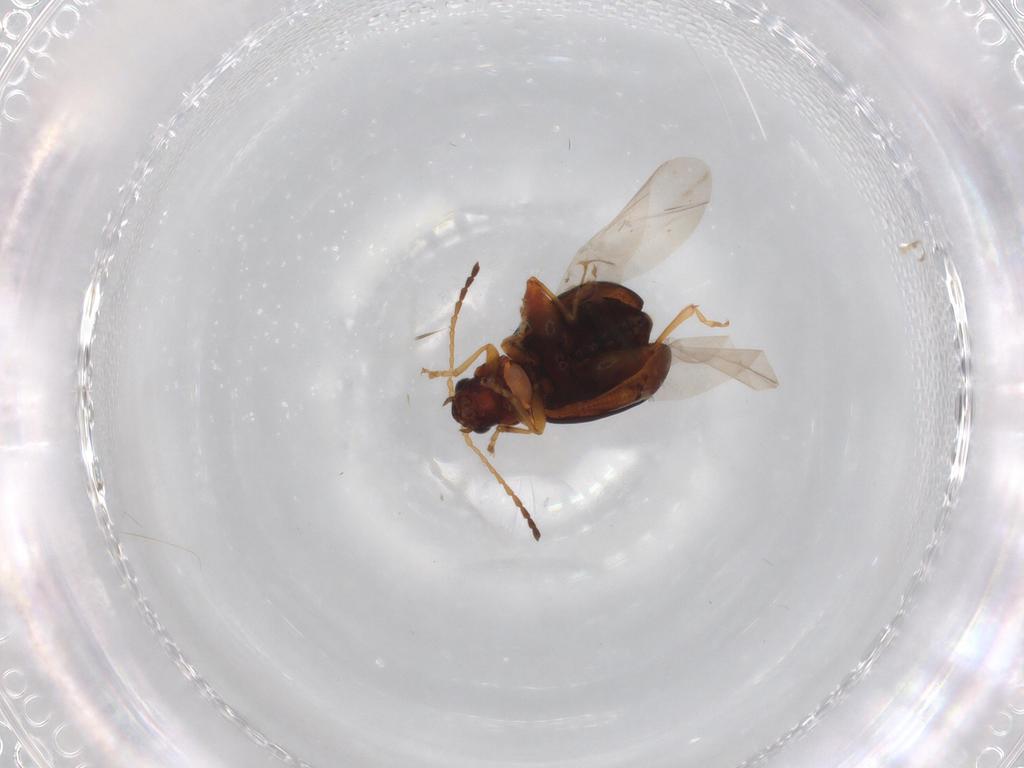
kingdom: Animalia
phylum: Arthropoda
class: Insecta
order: Coleoptera
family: Chrysomelidae
